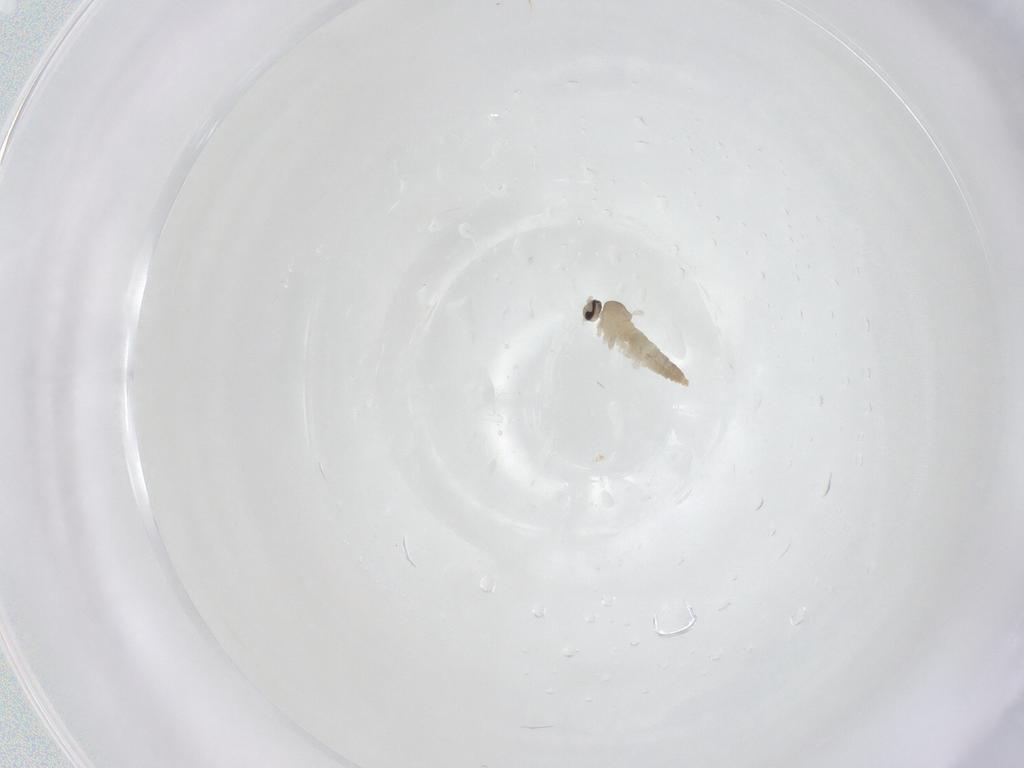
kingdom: Animalia
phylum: Arthropoda
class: Insecta
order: Diptera
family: Cecidomyiidae
